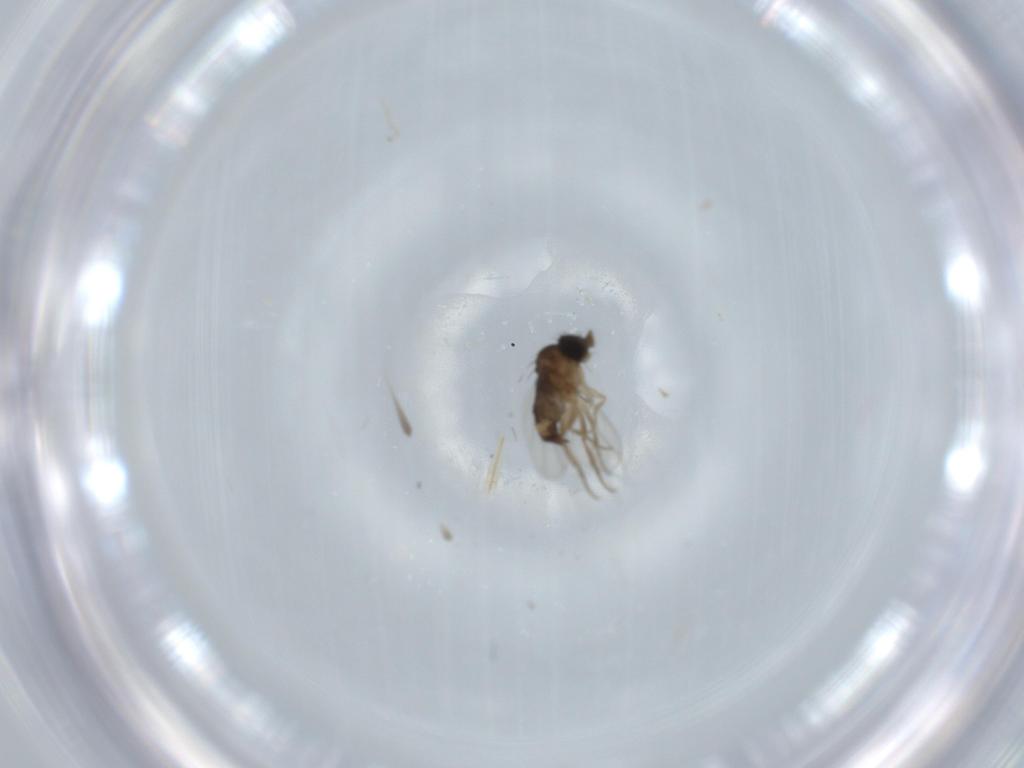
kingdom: Animalia
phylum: Arthropoda
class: Insecta
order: Diptera
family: Phoridae
